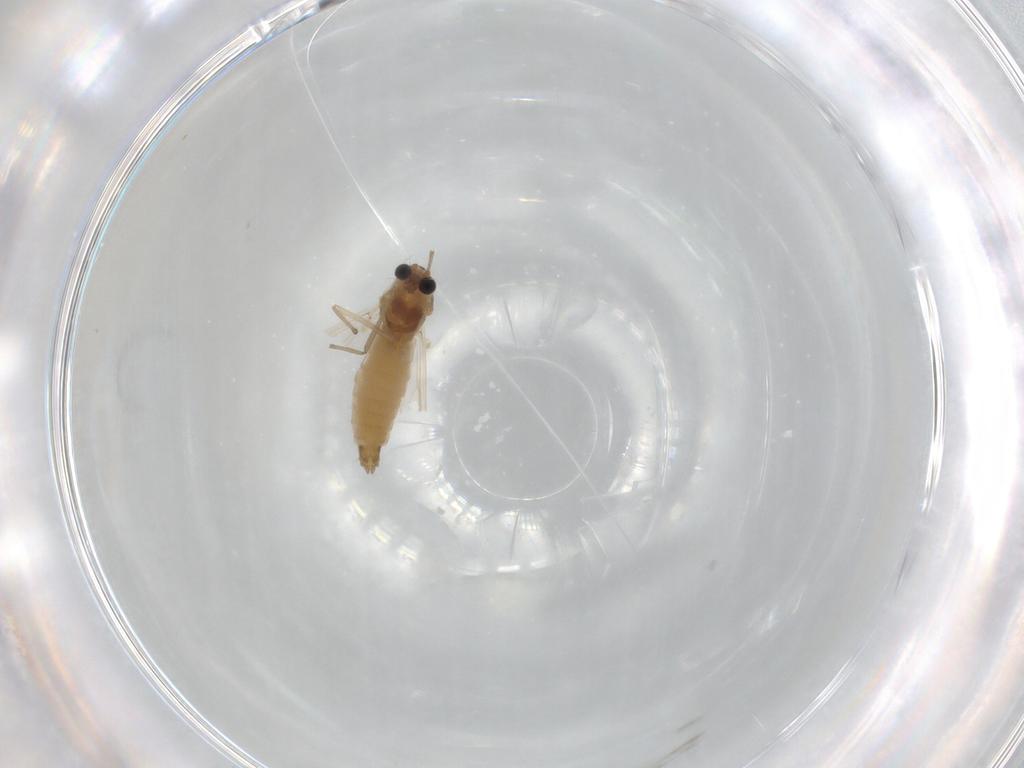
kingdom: Animalia
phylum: Arthropoda
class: Insecta
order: Diptera
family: Chironomidae
